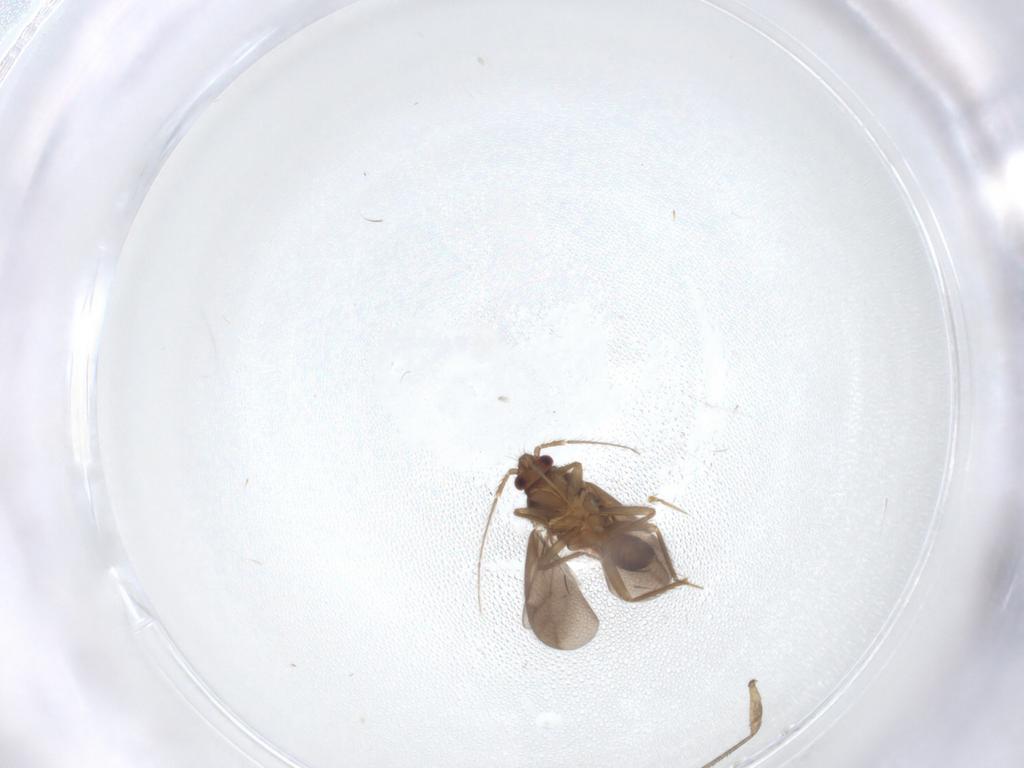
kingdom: Animalia
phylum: Arthropoda
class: Insecta
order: Hemiptera
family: Ceratocombidae
